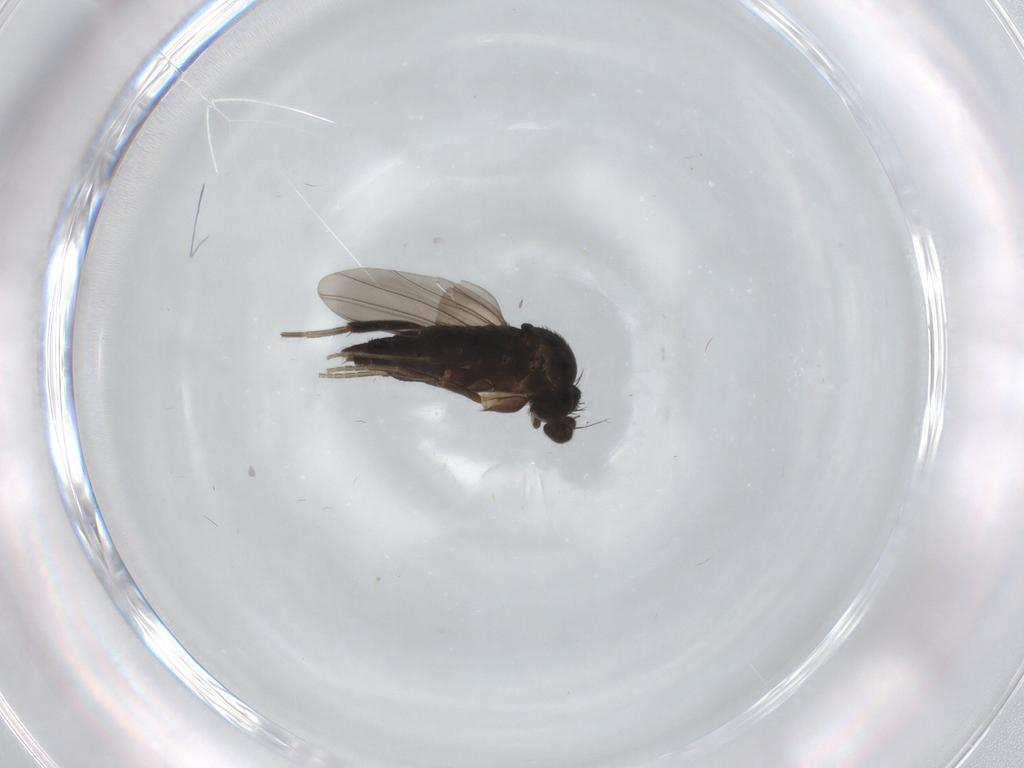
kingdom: Animalia
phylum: Arthropoda
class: Insecta
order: Diptera
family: Phoridae
